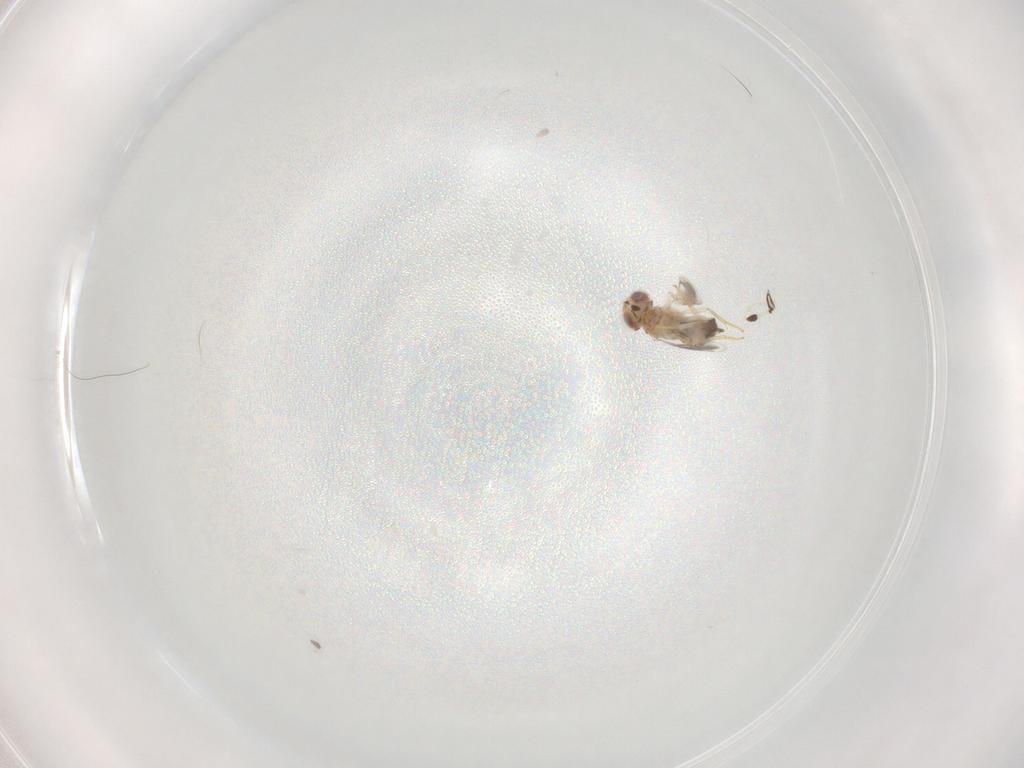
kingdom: Animalia
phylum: Arthropoda
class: Insecta
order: Hymenoptera
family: Aphelinidae
